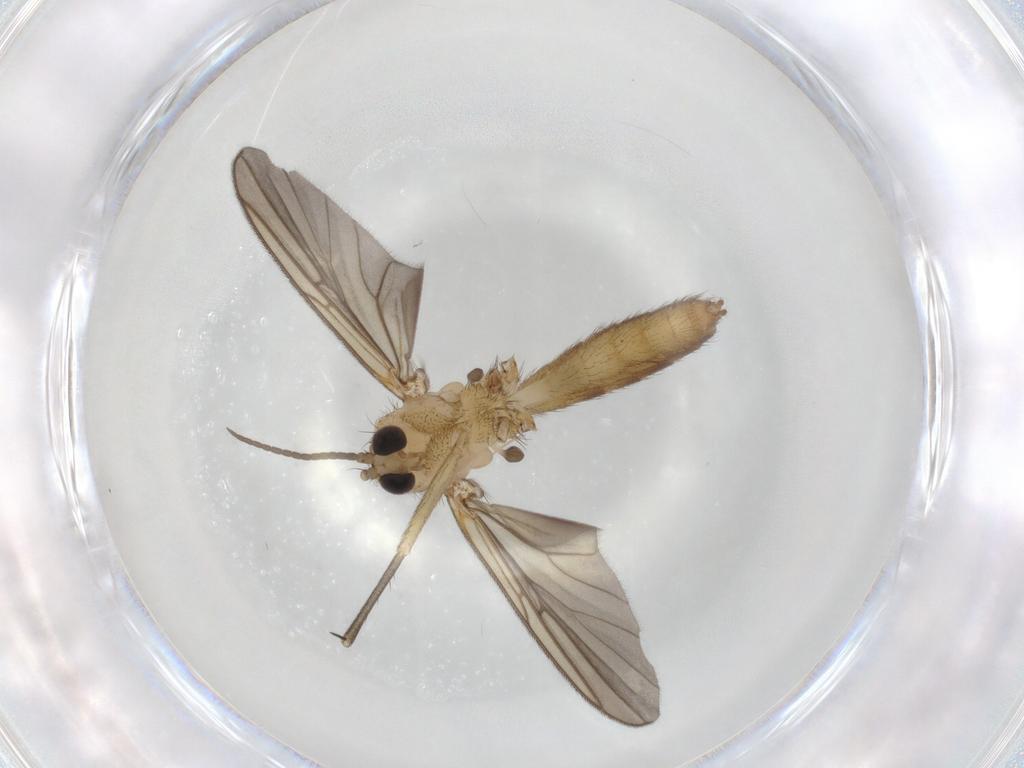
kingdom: Animalia
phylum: Arthropoda
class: Insecta
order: Diptera
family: Phoridae
